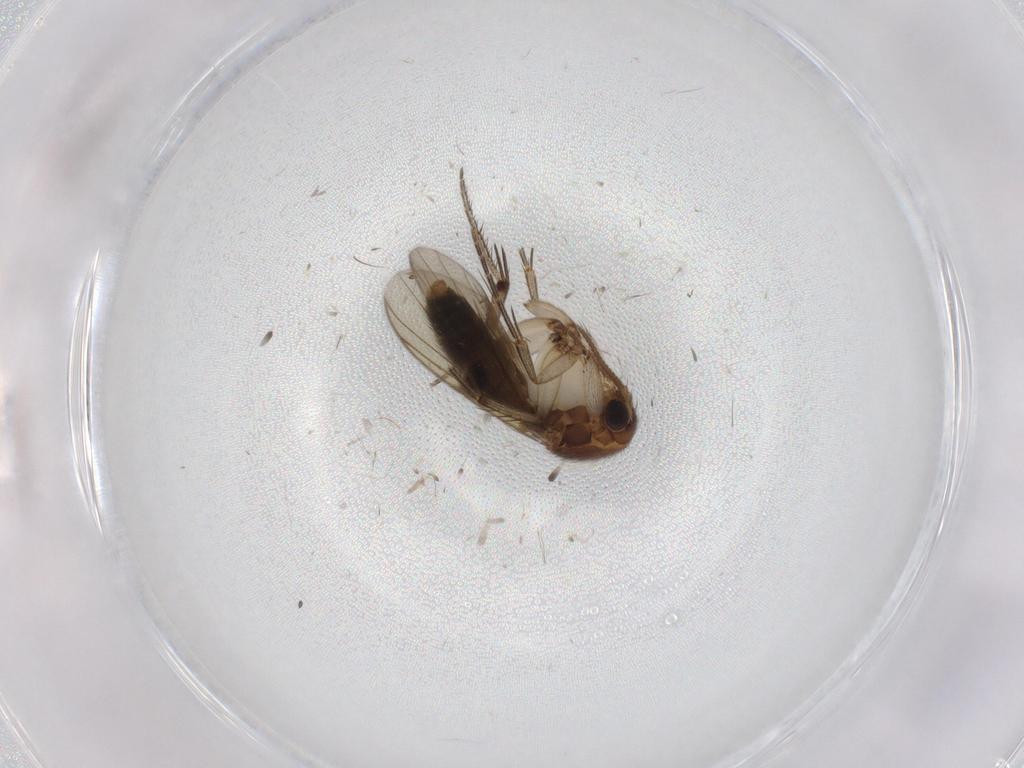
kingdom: Animalia
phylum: Arthropoda
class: Insecta
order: Diptera
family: Mycetophilidae
